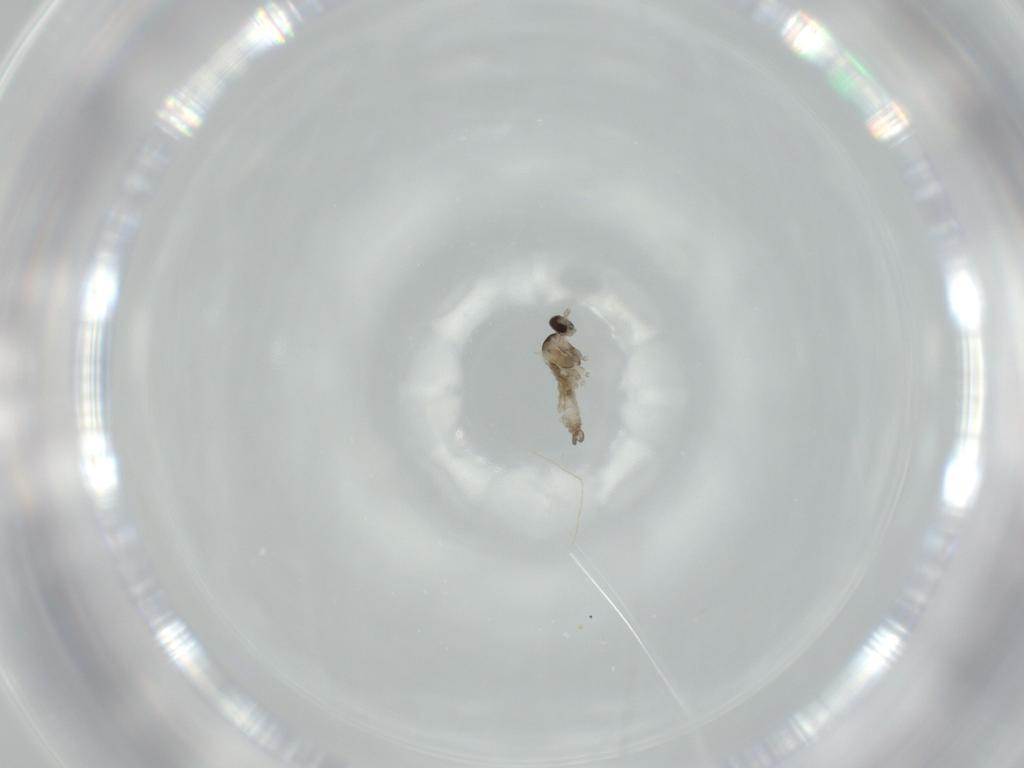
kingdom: Animalia
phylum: Arthropoda
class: Insecta
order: Diptera
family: Cecidomyiidae
